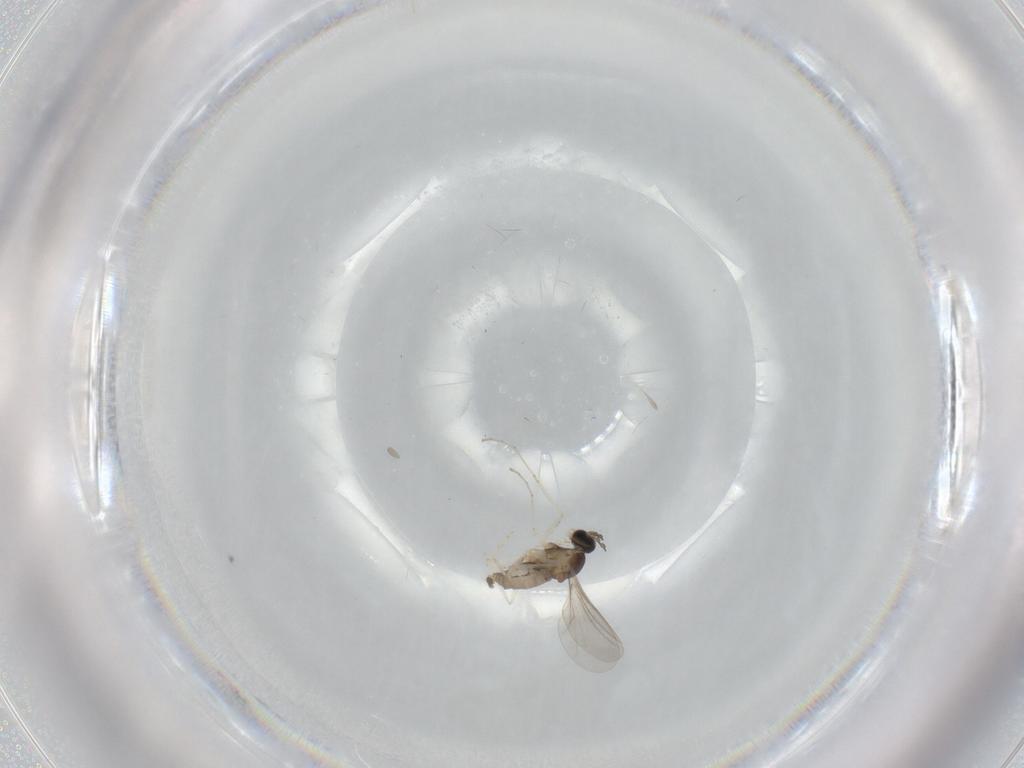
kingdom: Animalia
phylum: Arthropoda
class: Insecta
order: Diptera
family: Cecidomyiidae
